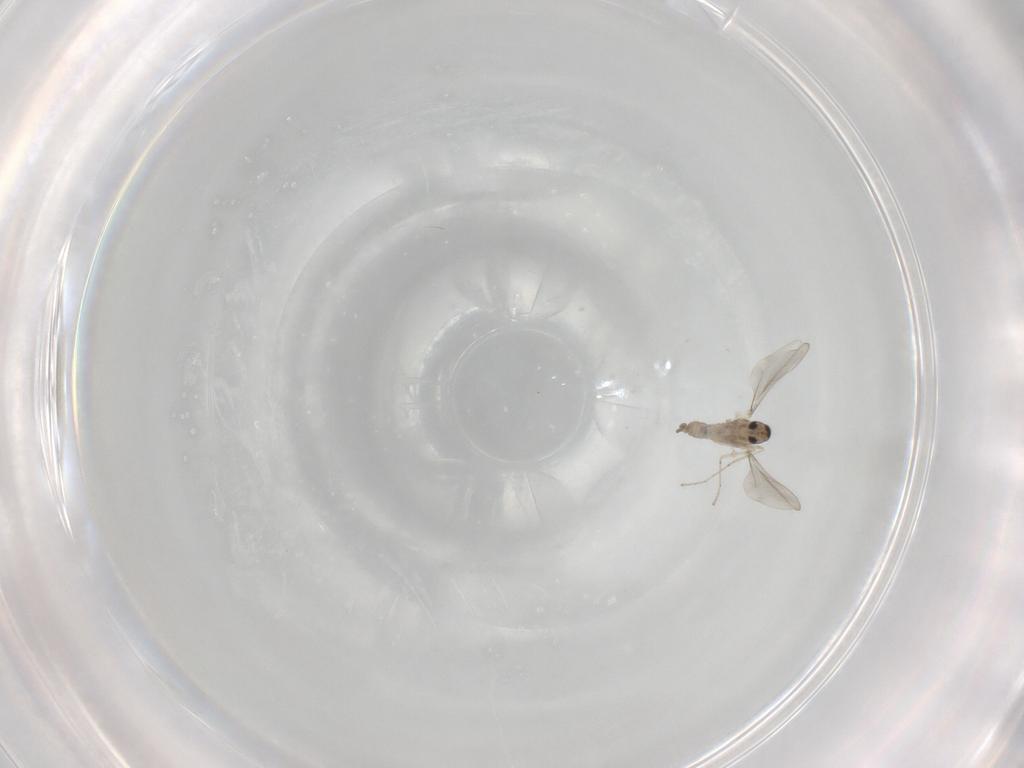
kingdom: Animalia
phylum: Arthropoda
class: Insecta
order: Diptera
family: Cecidomyiidae
